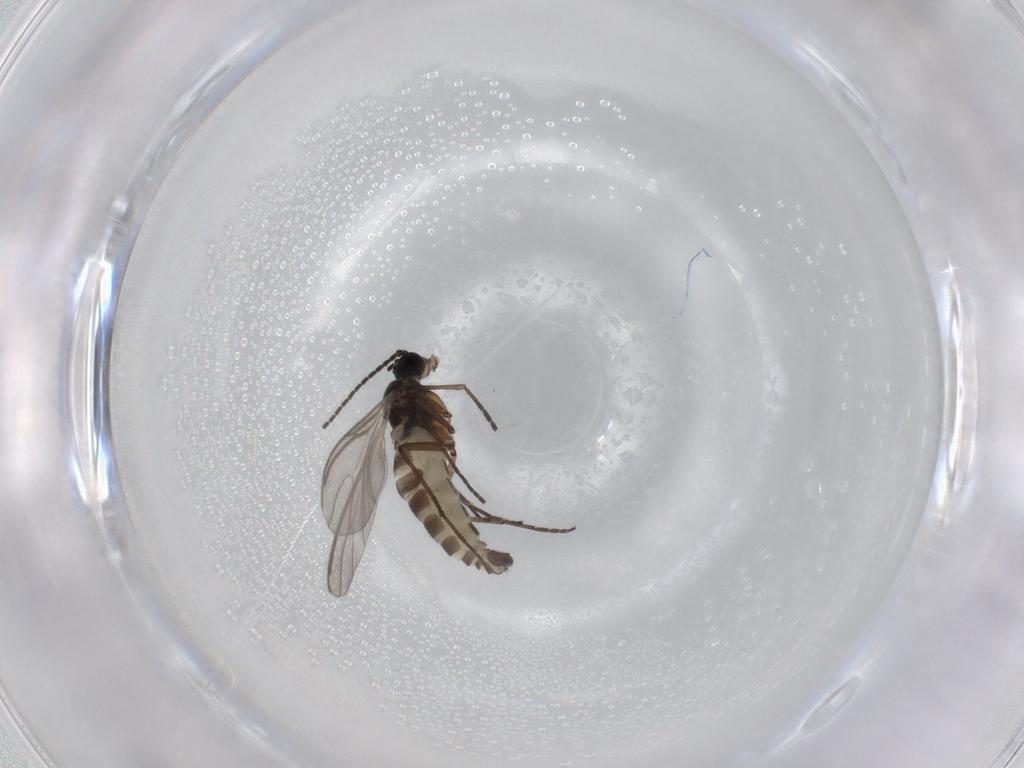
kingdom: Animalia
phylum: Arthropoda
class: Insecta
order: Diptera
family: Sciaridae
